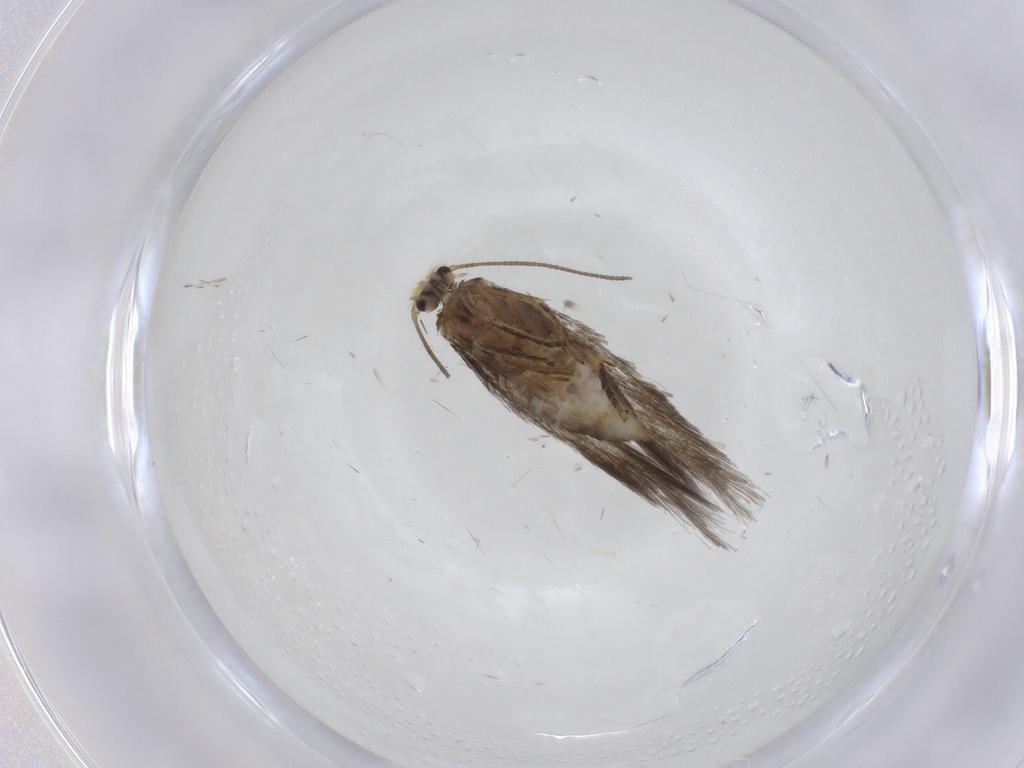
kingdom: Animalia
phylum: Arthropoda
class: Insecta
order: Lepidoptera
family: Nepticulidae
